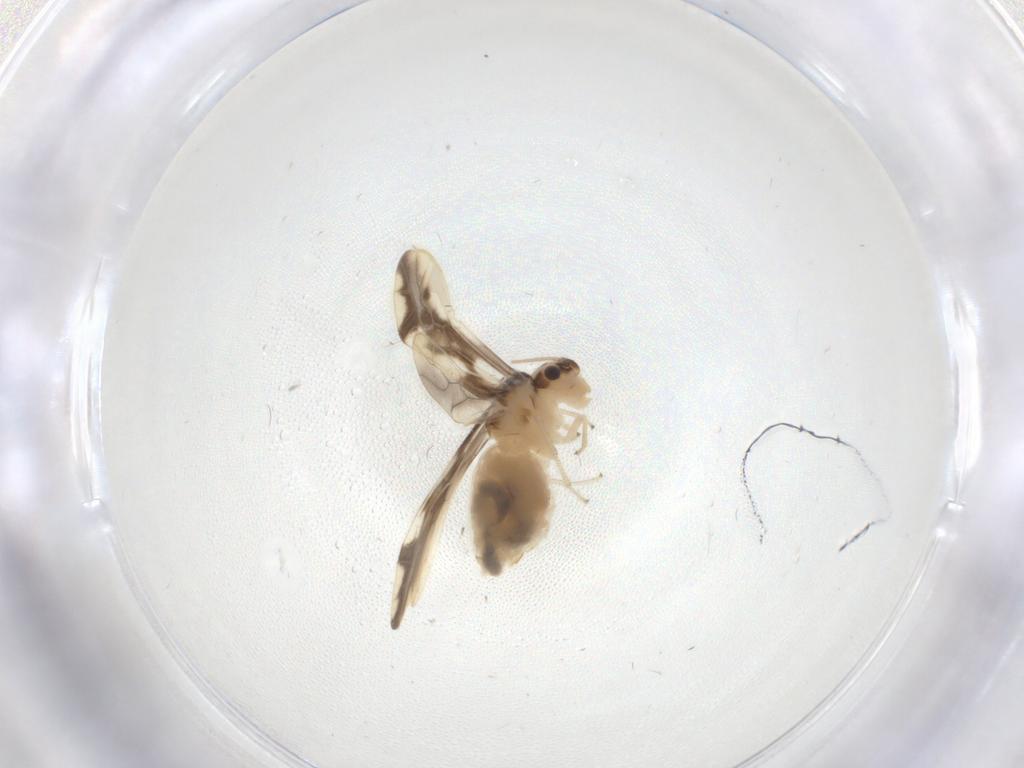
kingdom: Animalia
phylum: Arthropoda
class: Insecta
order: Psocodea
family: Caeciliusidae
